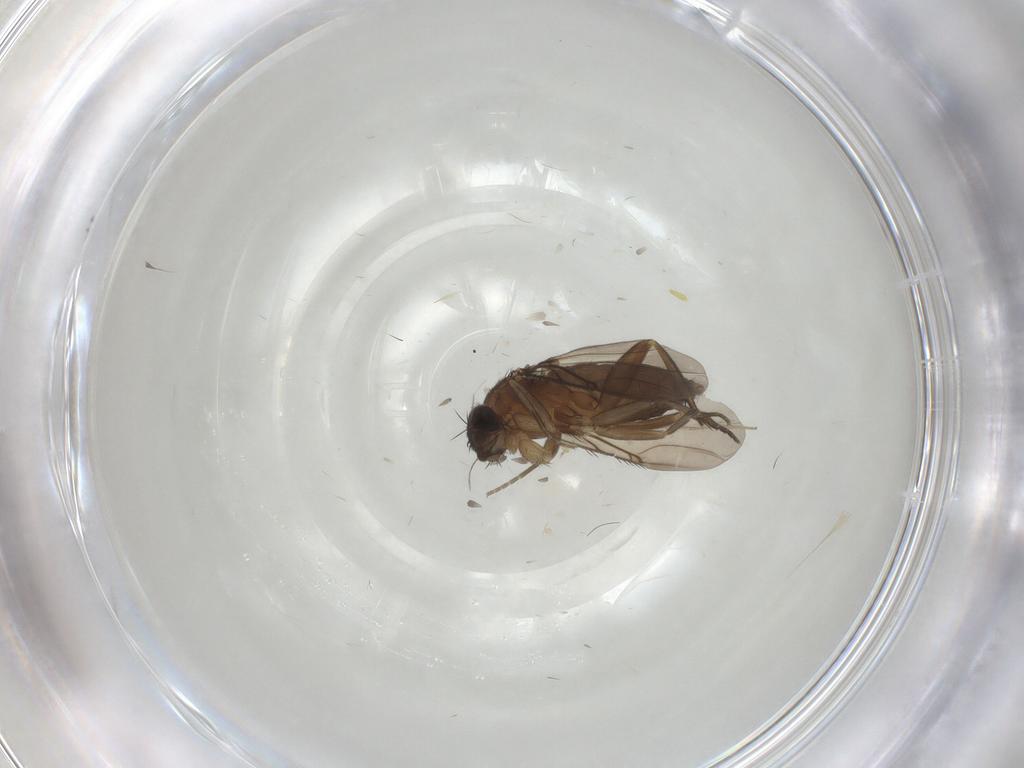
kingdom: Animalia
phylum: Arthropoda
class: Insecta
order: Diptera
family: Phoridae
